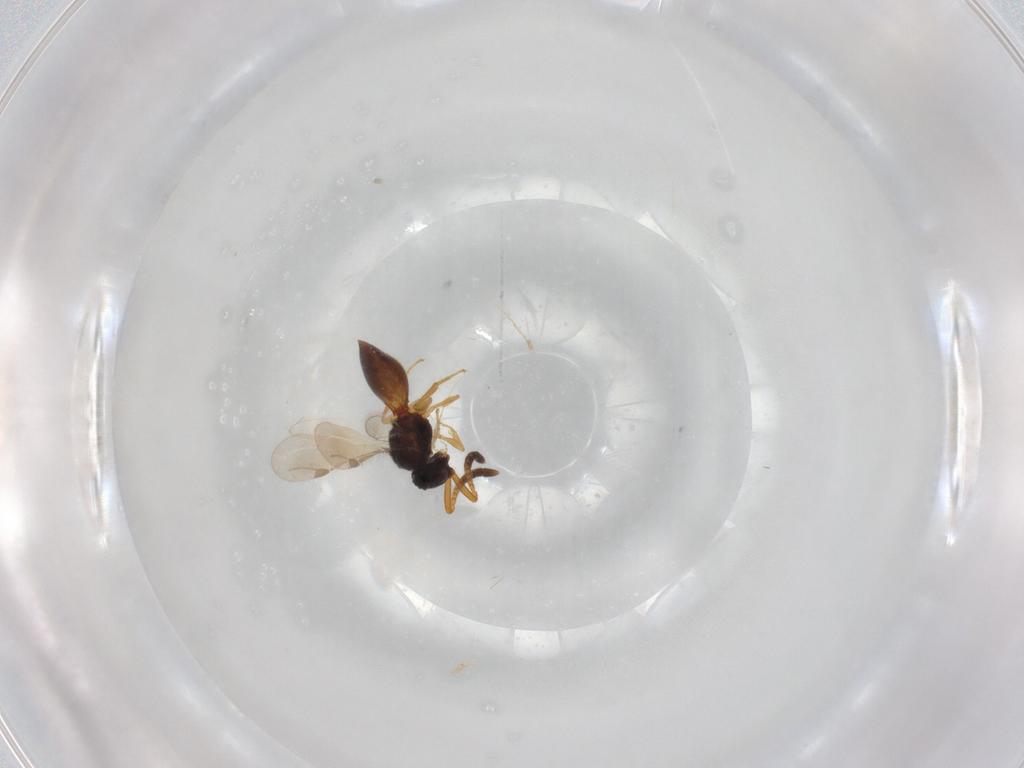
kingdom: Animalia
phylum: Arthropoda
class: Insecta
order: Hymenoptera
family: Megaspilidae
